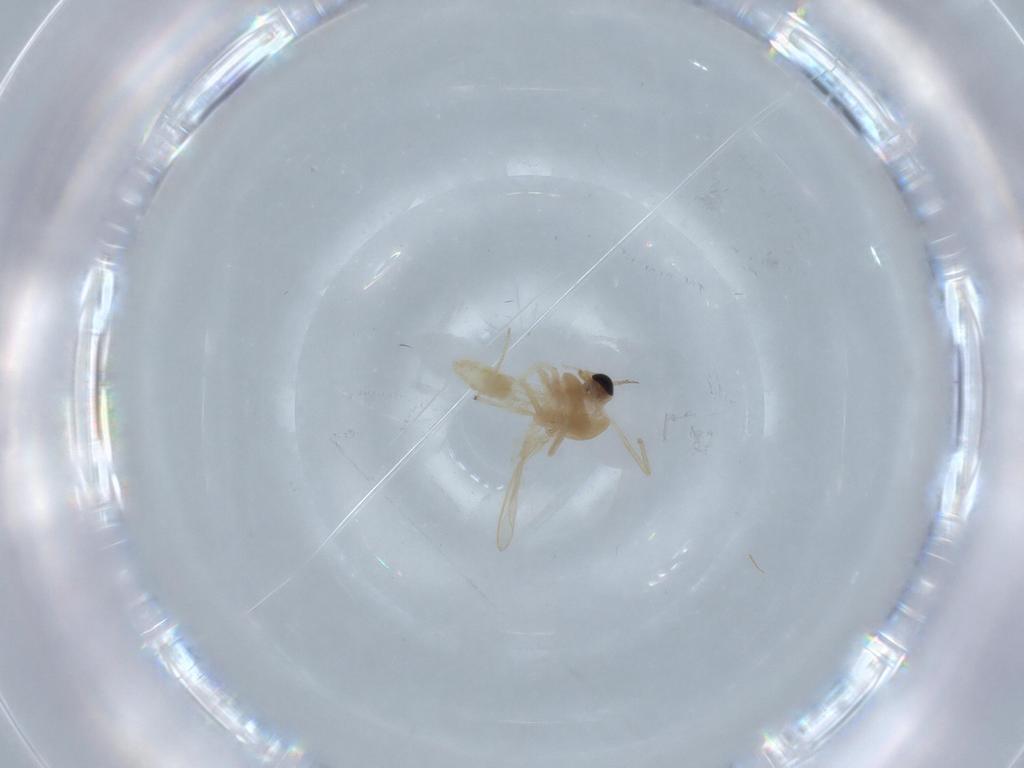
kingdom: Animalia
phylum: Arthropoda
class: Insecta
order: Diptera
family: Chironomidae
